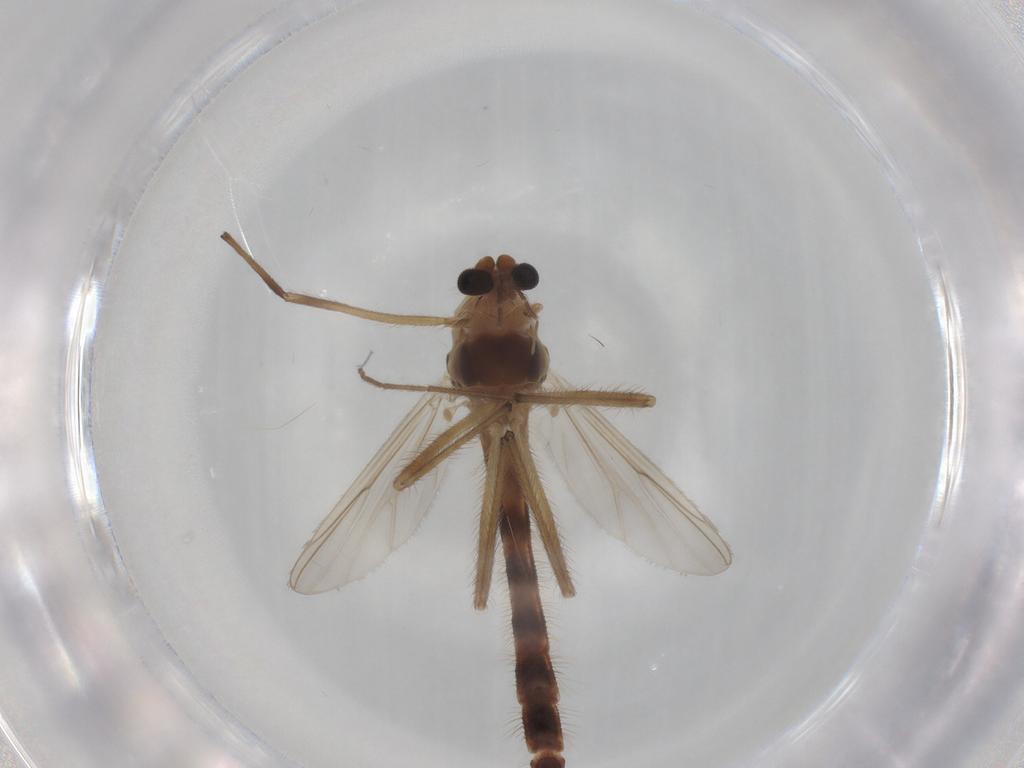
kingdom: Animalia
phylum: Arthropoda
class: Insecta
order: Diptera
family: Chironomidae
